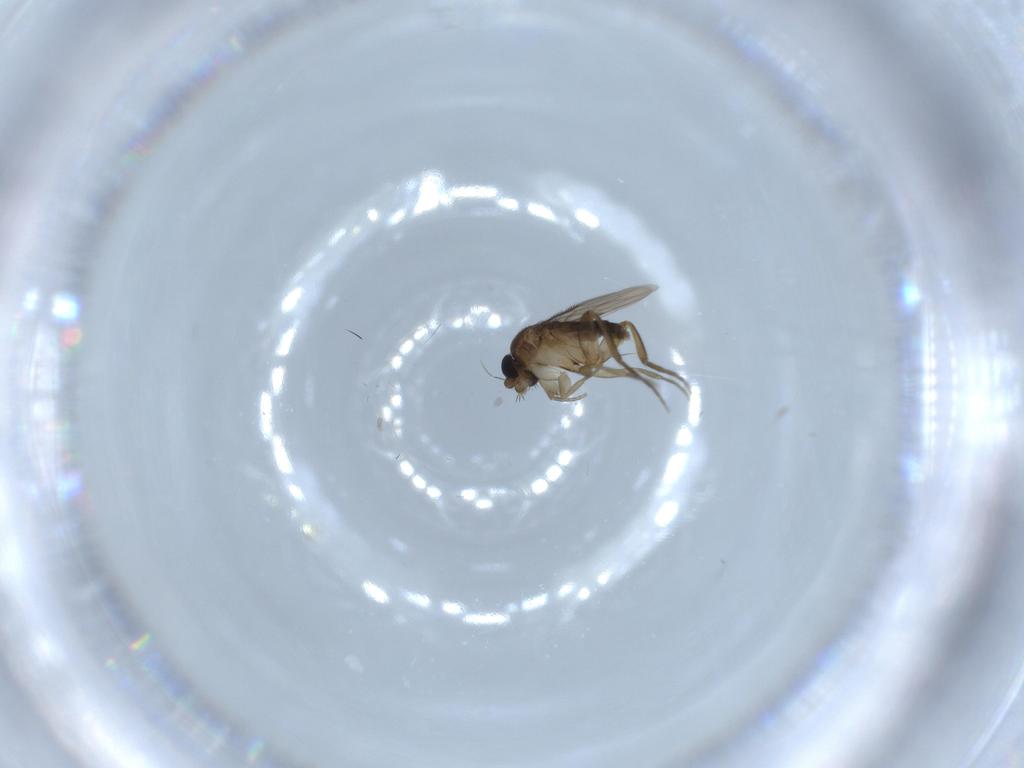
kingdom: Animalia
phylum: Arthropoda
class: Insecta
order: Diptera
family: Phoridae
